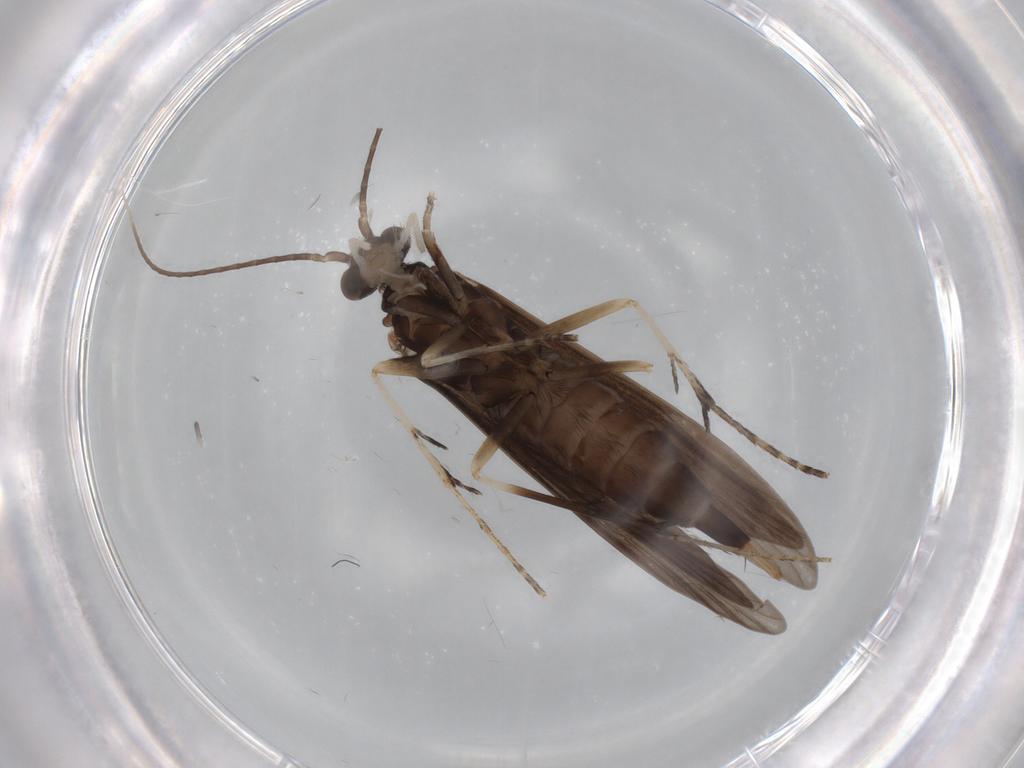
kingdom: Animalia
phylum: Arthropoda
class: Insecta
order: Trichoptera
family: Xiphocentronidae
